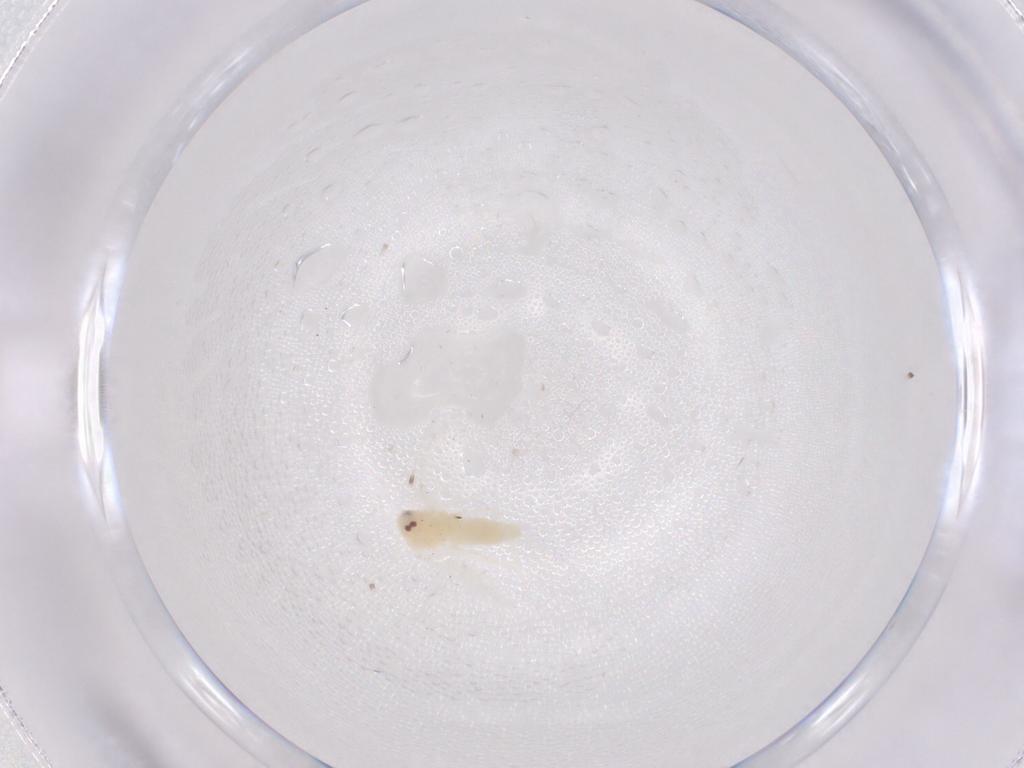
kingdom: Animalia
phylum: Arthropoda
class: Insecta
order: Hemiptera
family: Aleyrodidae
